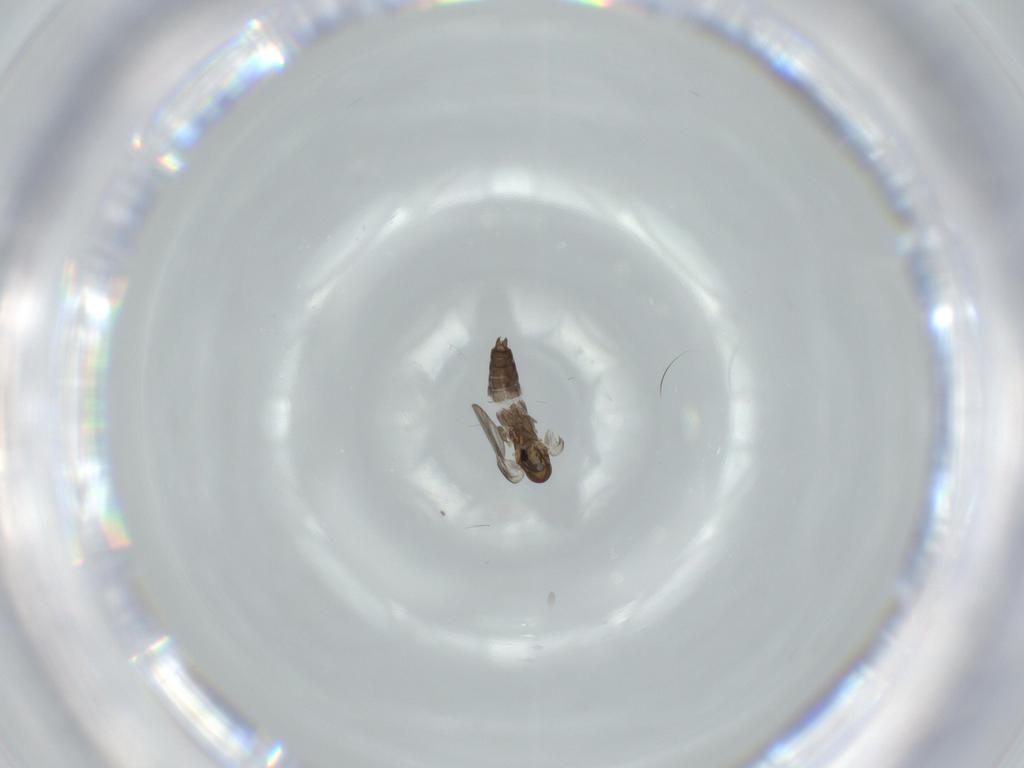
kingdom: Animalia
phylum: Arthropoda
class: Insecta
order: Diptera
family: Psychodidae
